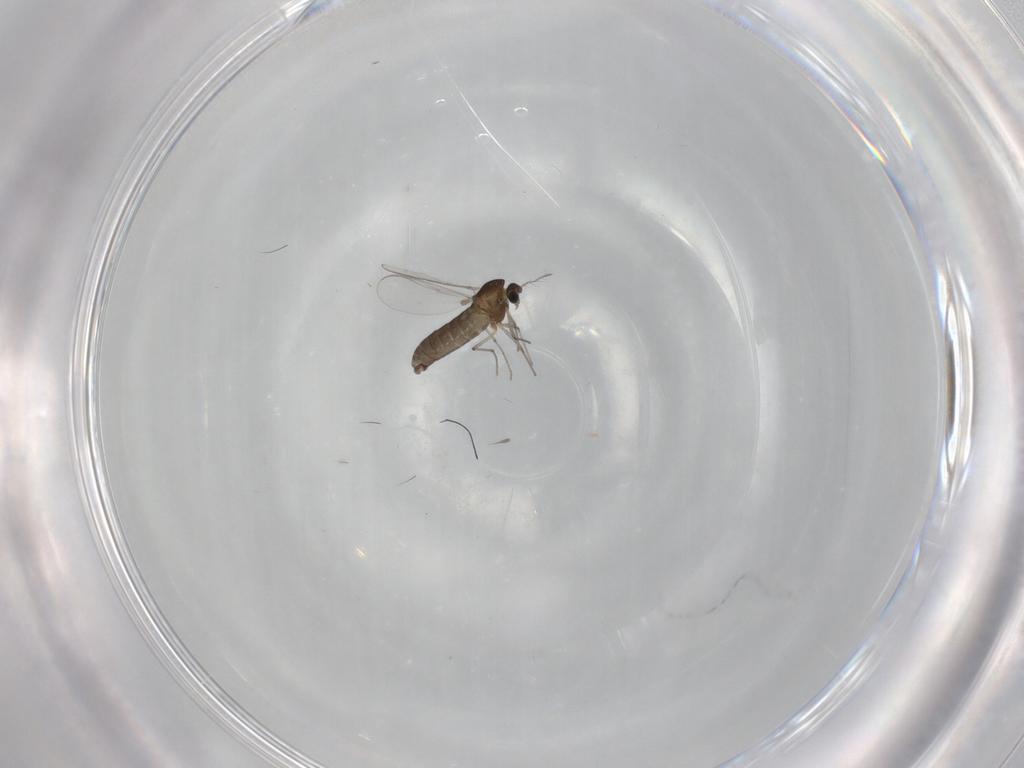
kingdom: Animalia
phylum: Arthropoda
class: Insecta
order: Diptera
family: Chironomidae
